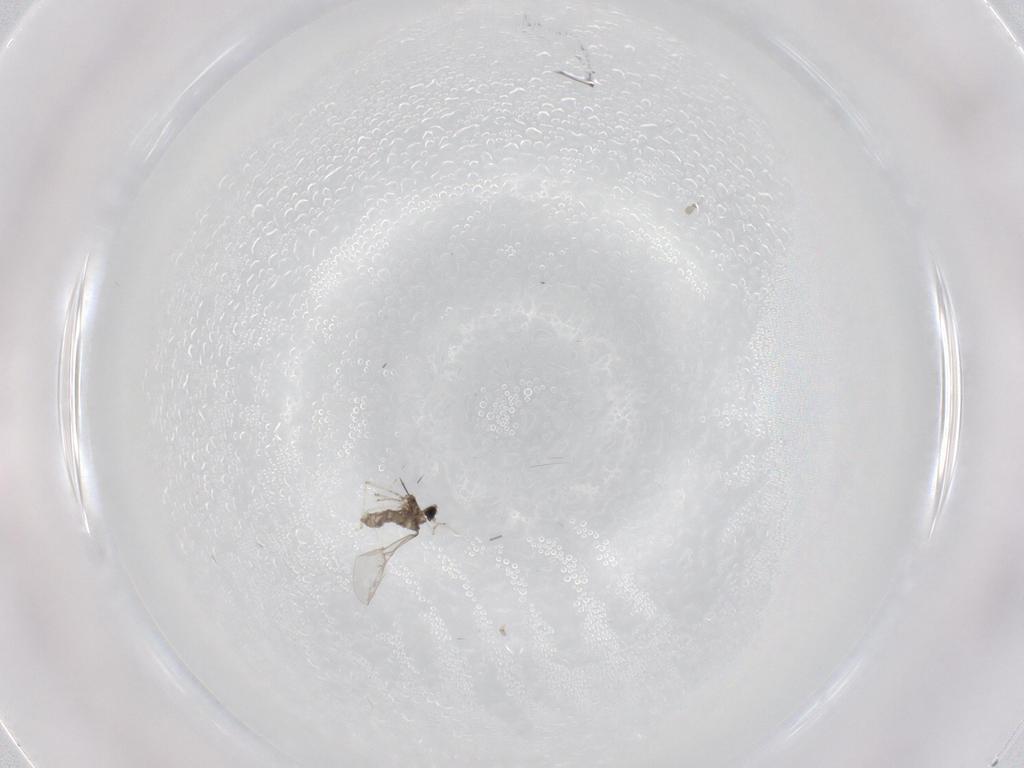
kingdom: Animalia
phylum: Arthropoda
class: Insecta
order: Diptera
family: Cecidomyiidae
